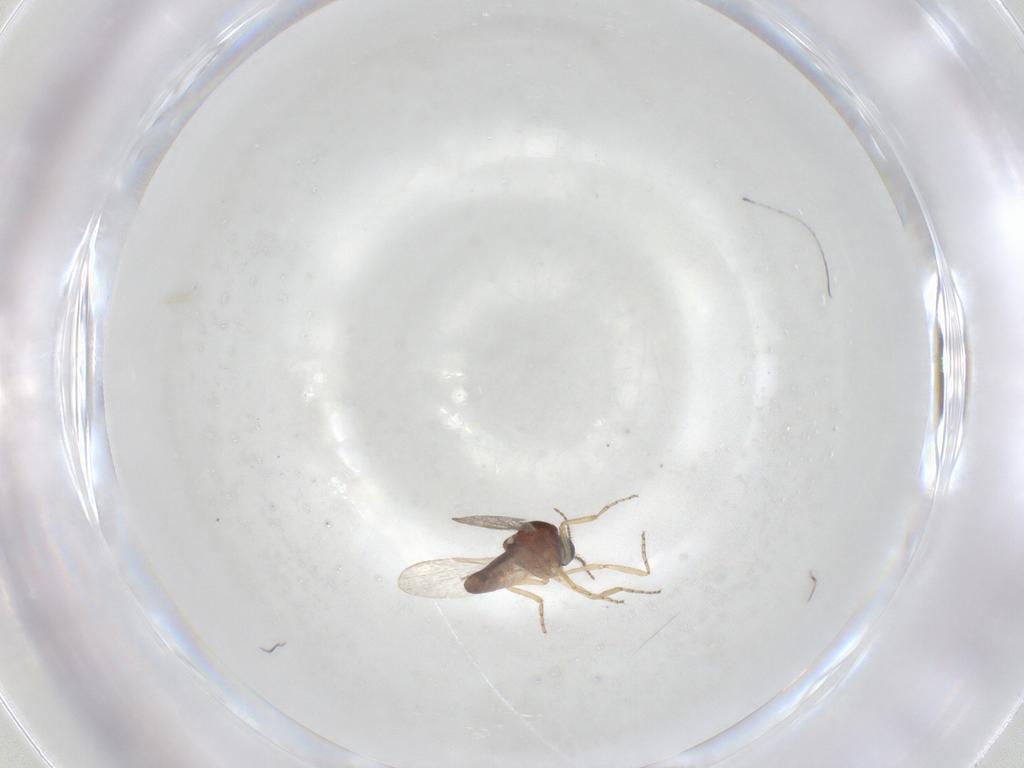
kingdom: Animalia
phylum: Arthropoda
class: Insecta
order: Diptera
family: Ceratopogonidae
